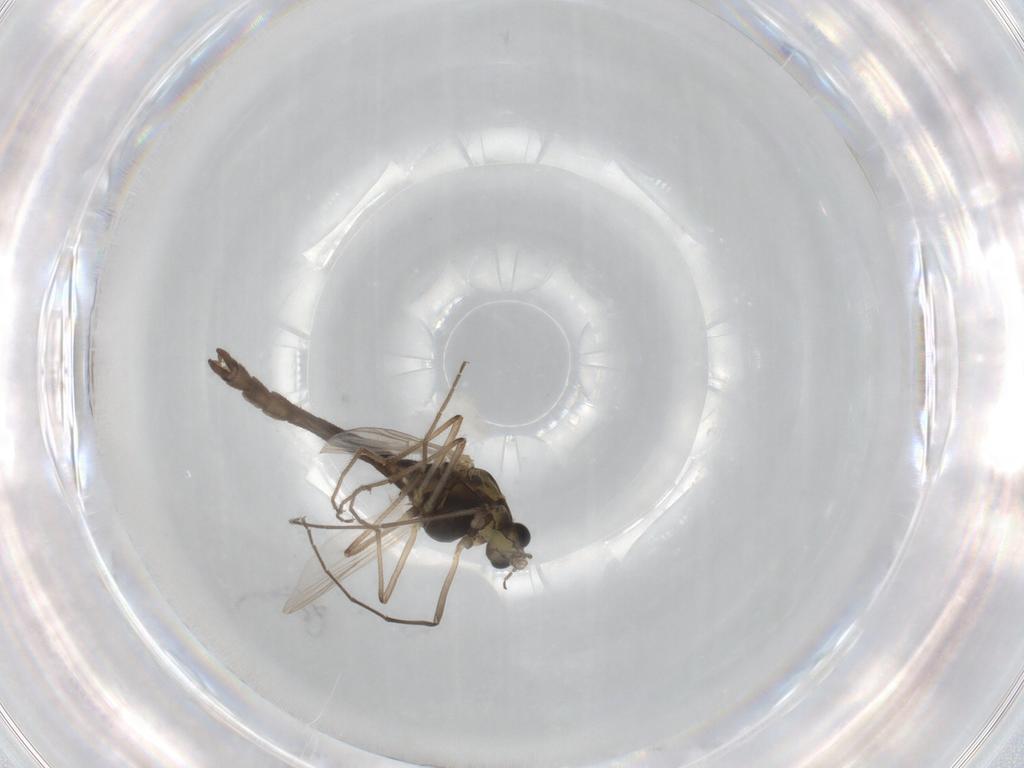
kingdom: Animalia
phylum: Arthropoda
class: Insecta
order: Diptera
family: Chironomidae
